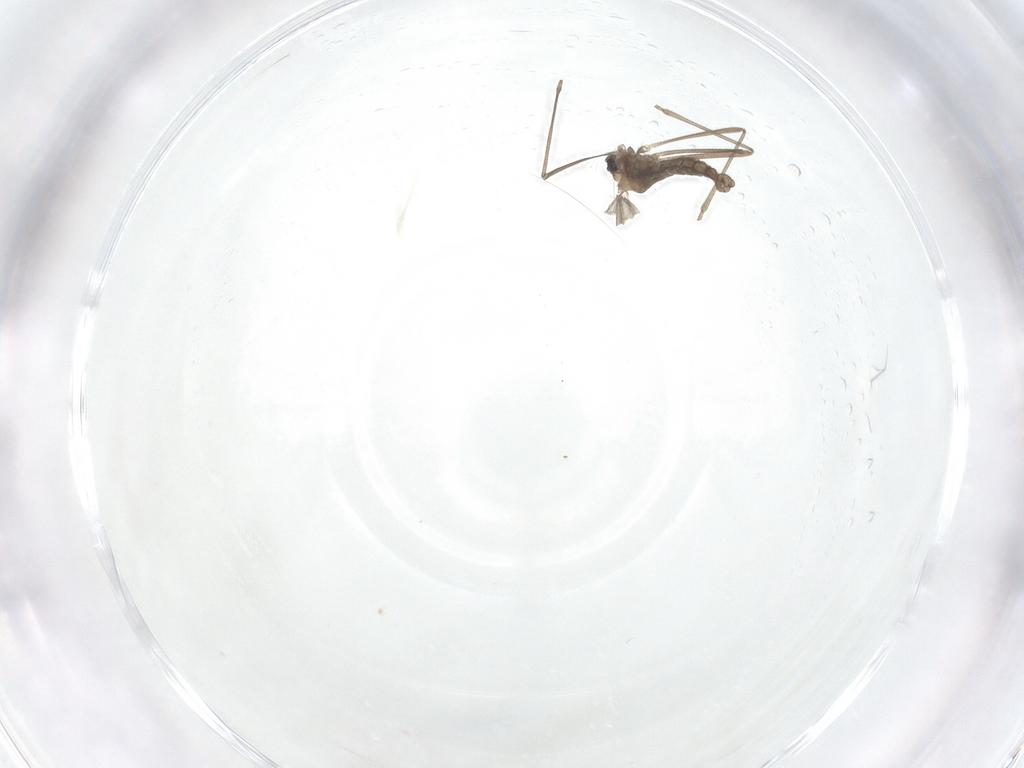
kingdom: Animalia
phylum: Arthropoda
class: Insecta
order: Diptera
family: Cecidomyiidae
